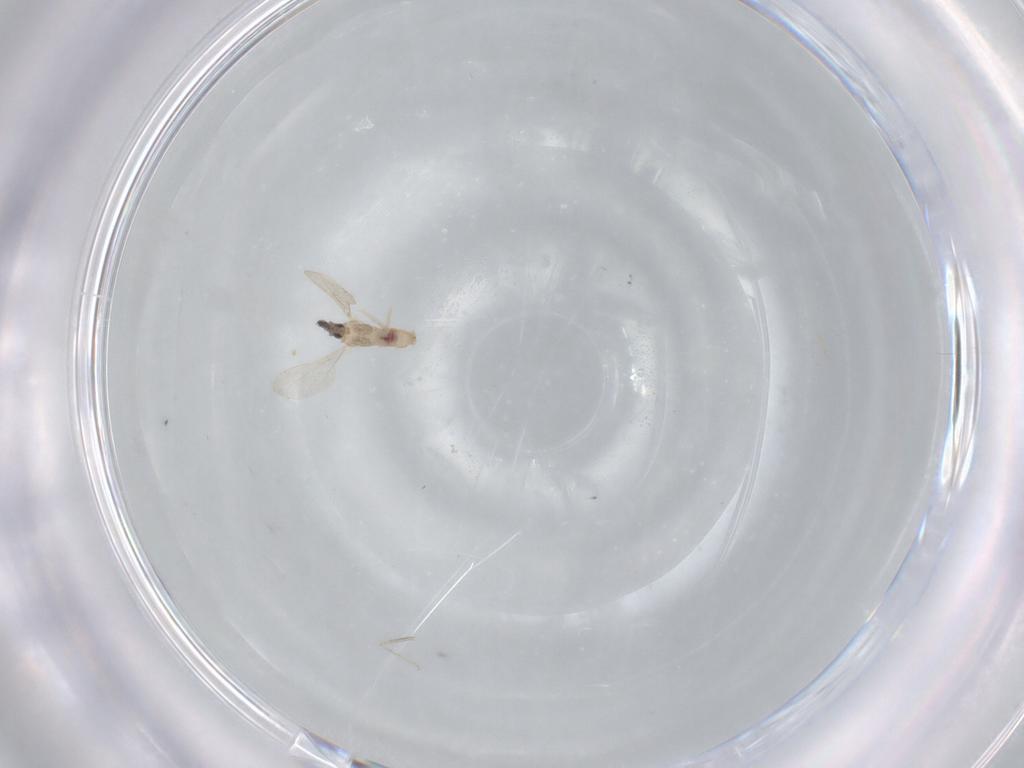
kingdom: Animalia
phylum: Arthropoda
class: Insecta
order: Diptera
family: Cecidomyiidae
